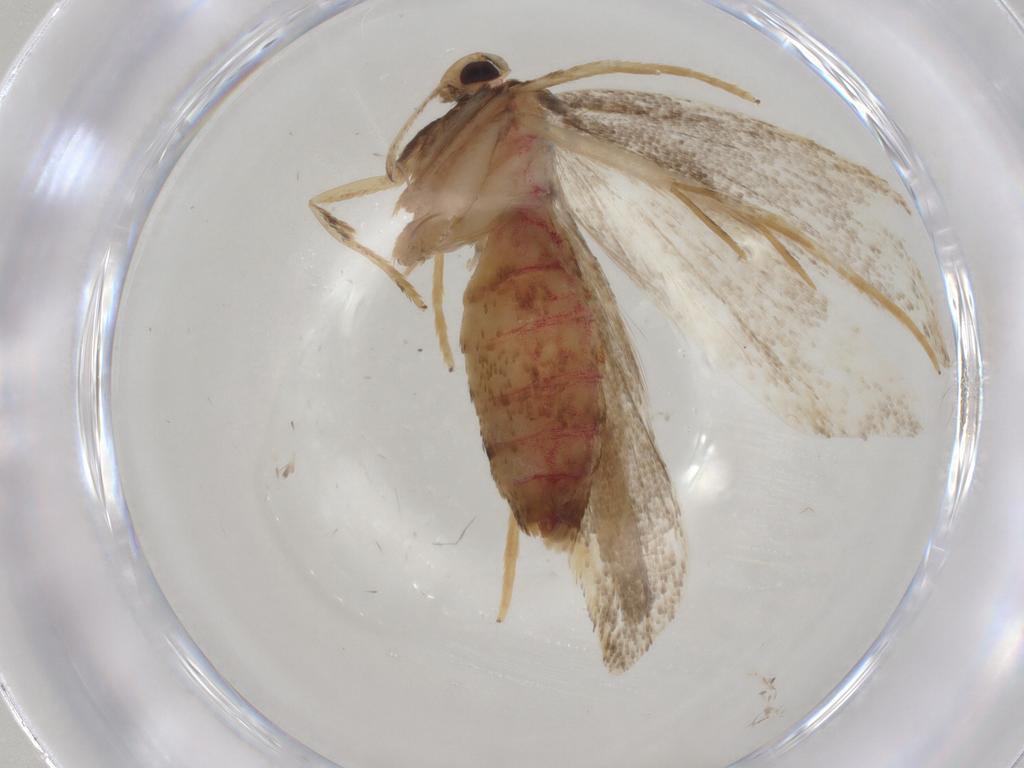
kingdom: Animalia
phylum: Arthropoda
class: Insecta
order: Lepidoptera
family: Lecithoceridae
